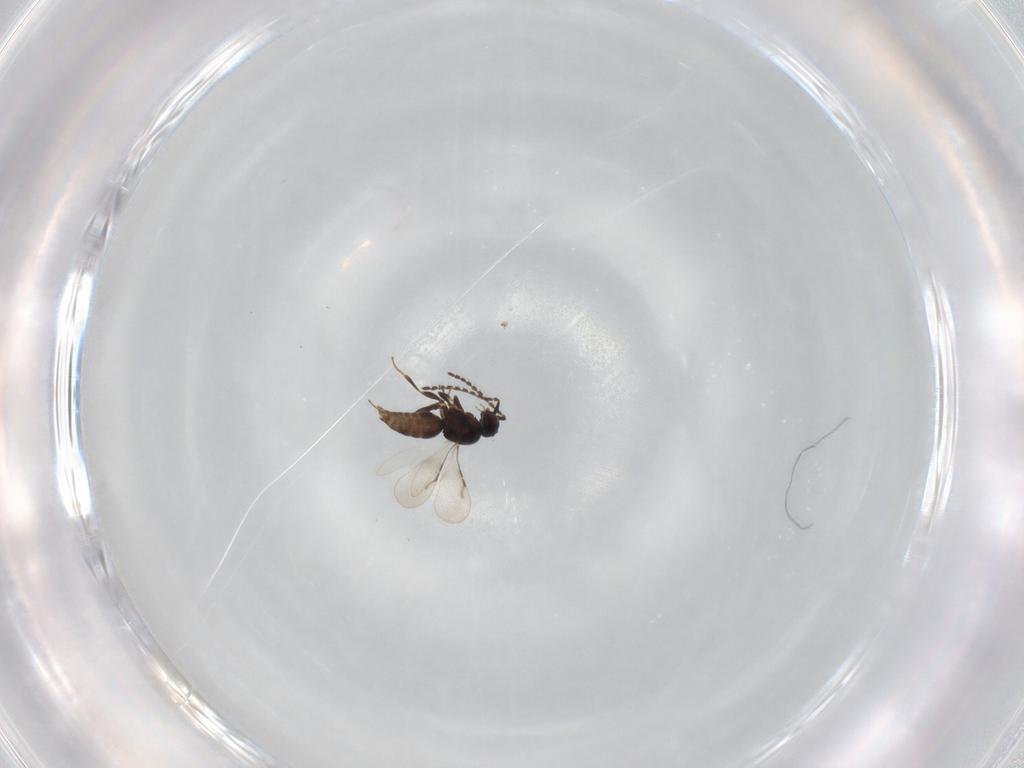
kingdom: Animalia
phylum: Arthropoda
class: Insecta
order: Hymenoptera
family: Ceraphronidae
